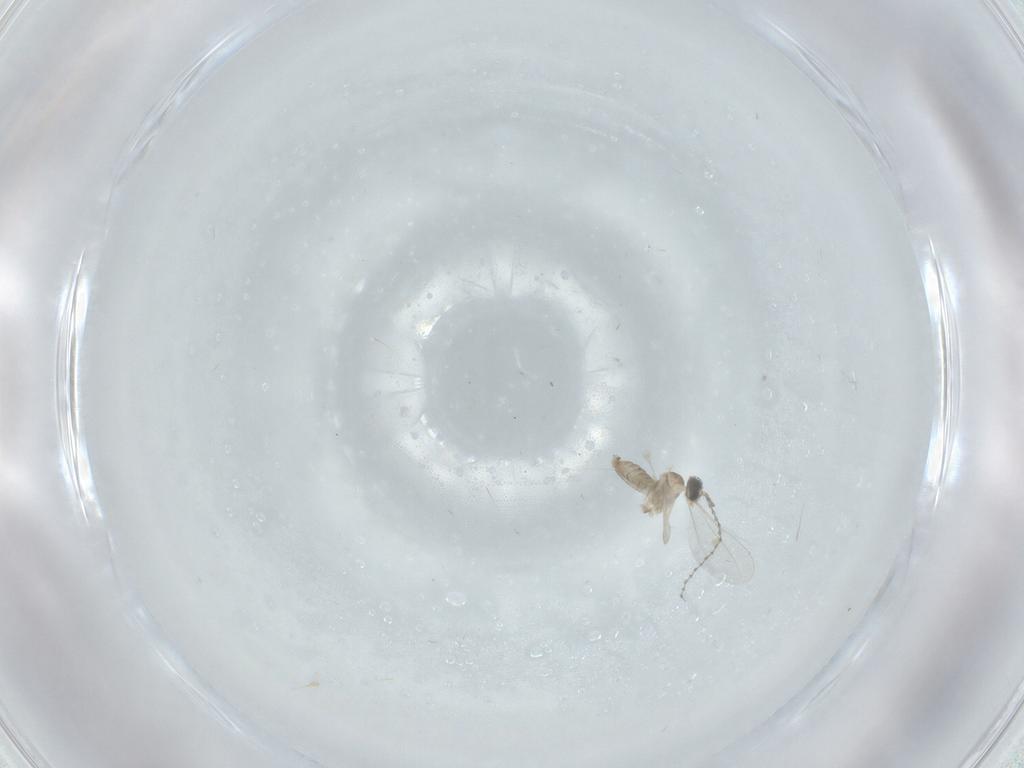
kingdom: Animalia
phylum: Arthropoda
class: Insecta
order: Diptera
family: Cecidomyiidae
